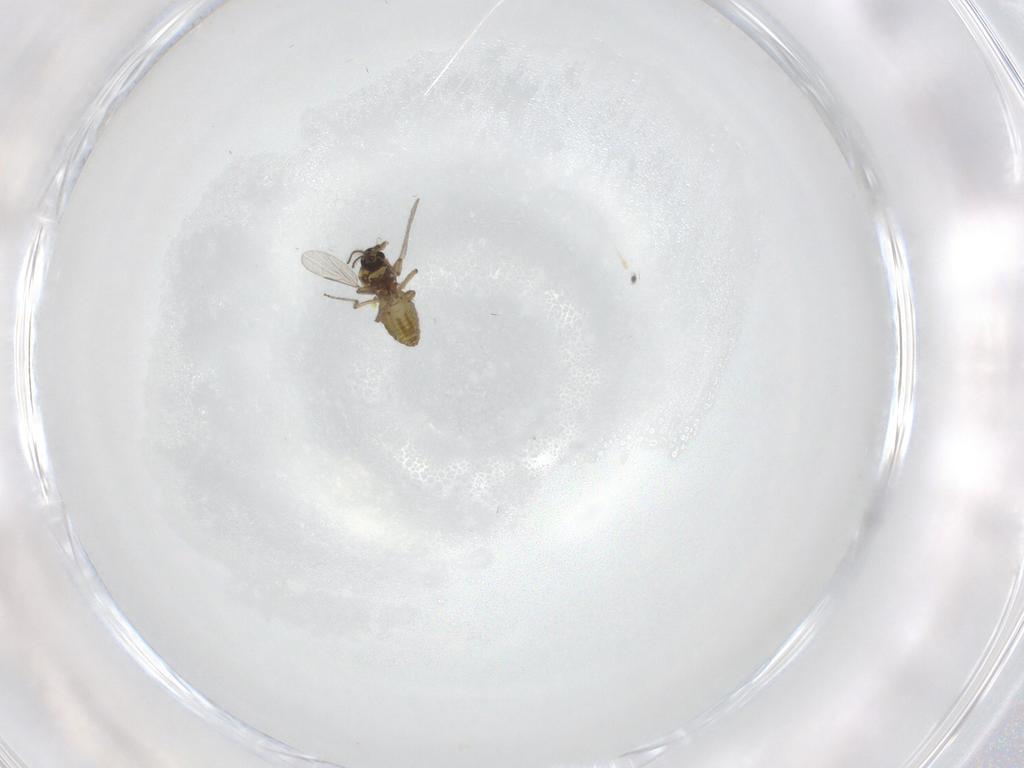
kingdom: Animalia
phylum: Arthropoda
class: Insecta
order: Diptera
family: Ceratopogonidae
